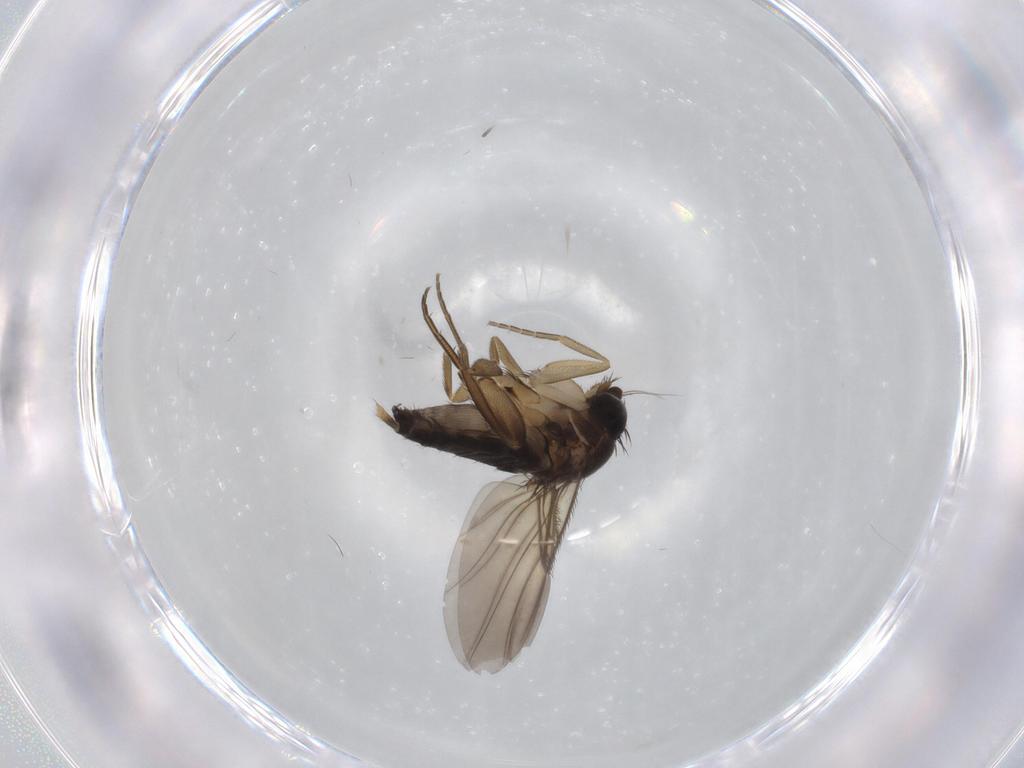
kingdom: Animalia
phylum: Arthropoda
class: Insecta
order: Diptera
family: Phoridae
